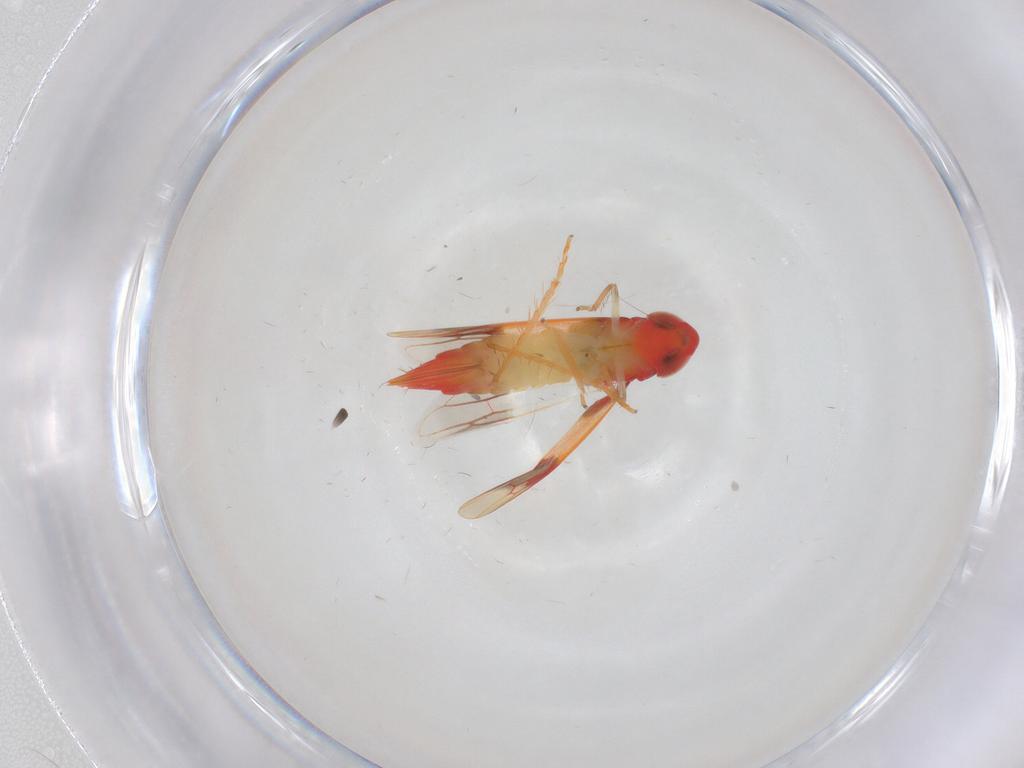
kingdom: Animalia
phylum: Arthropoda
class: Insecta
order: Hemiptera
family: Cicadellidae
